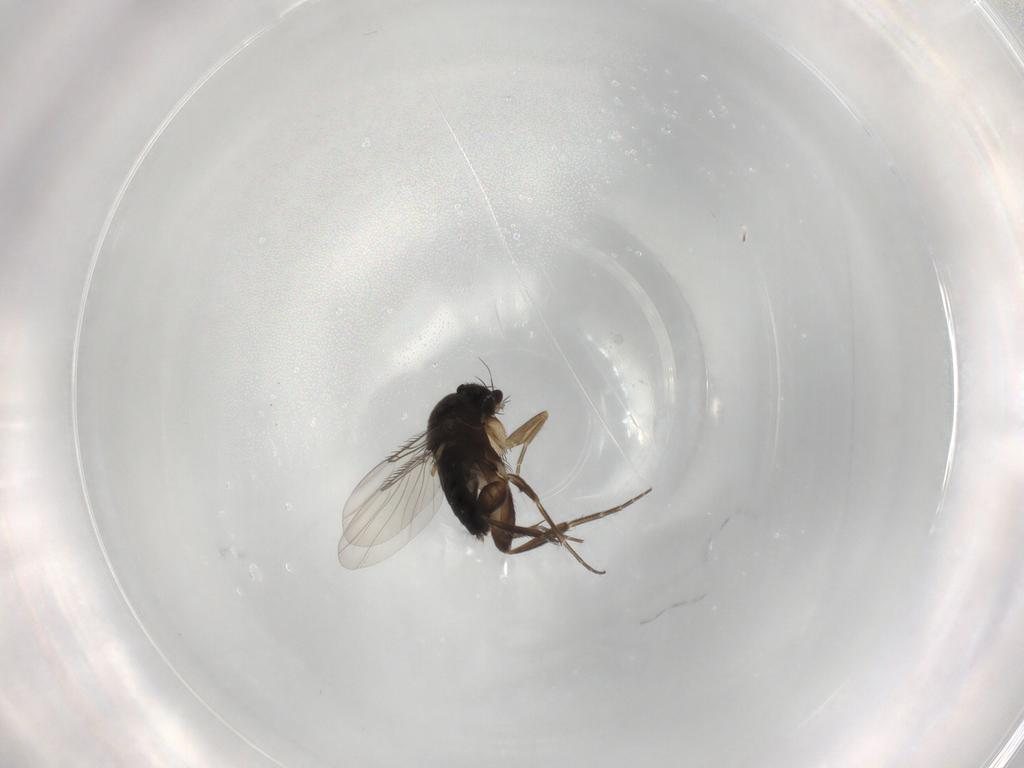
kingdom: Animalia
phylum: Arthropoda
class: Insecta
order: Diptera
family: Phoridae
